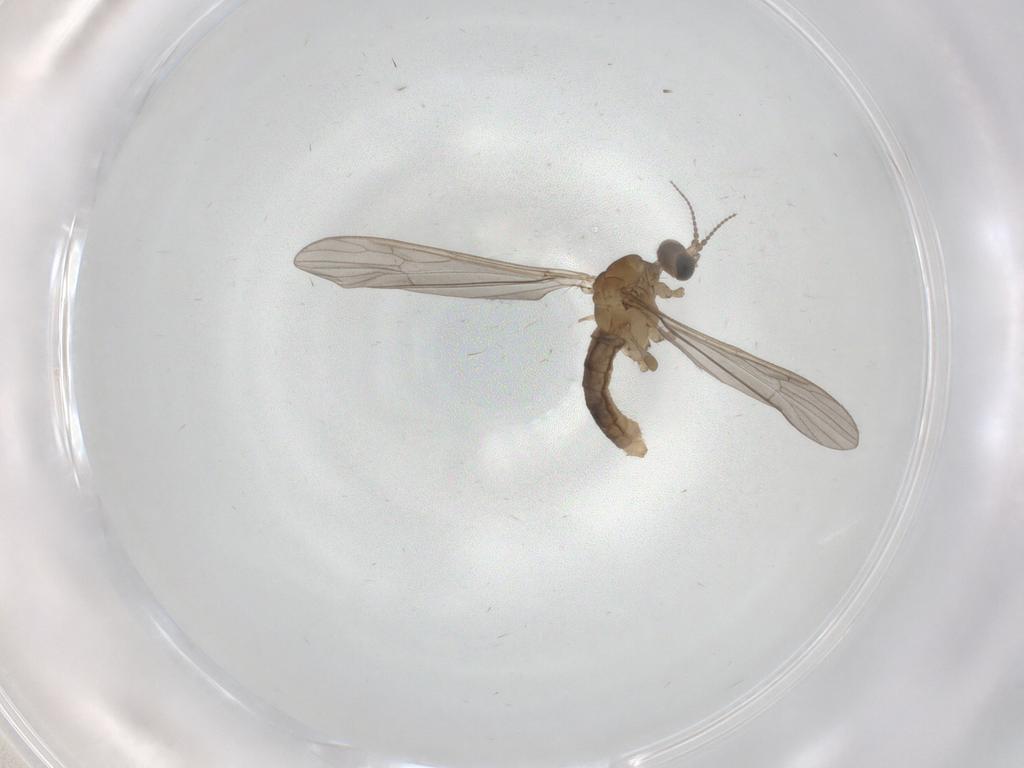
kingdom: Animalia
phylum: Arthropoda
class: Insecta
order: Diptera
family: Limoniidae
